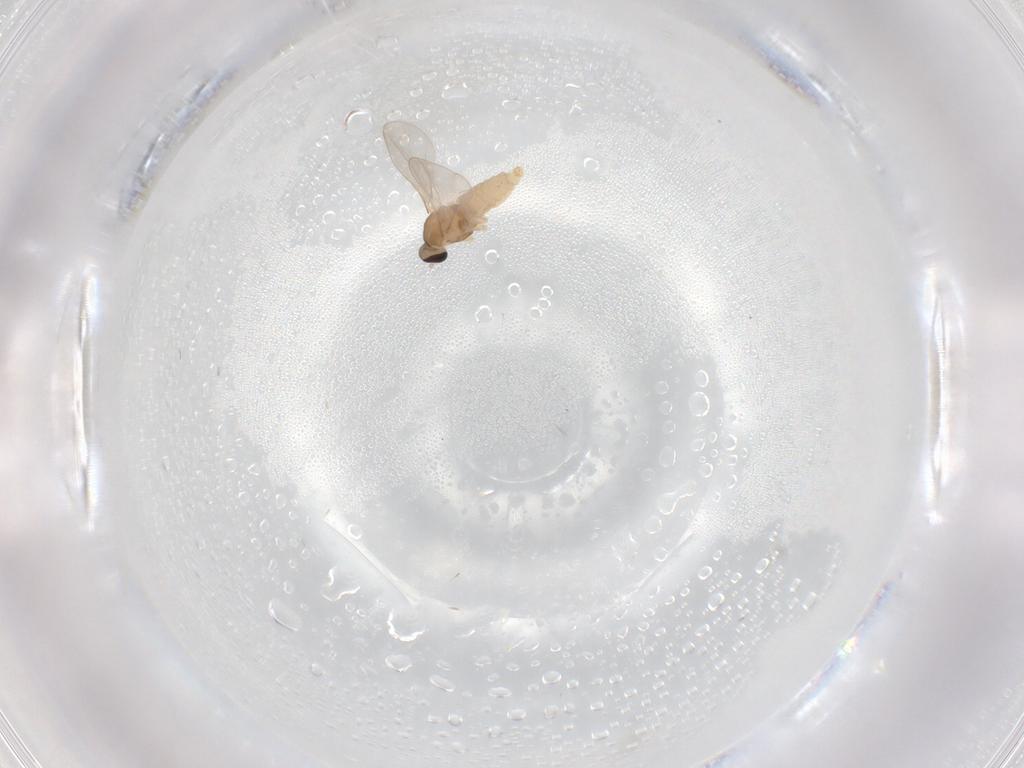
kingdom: Animalia
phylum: Arthropoda
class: Insecta
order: Diptera
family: Cecidomyiidae
